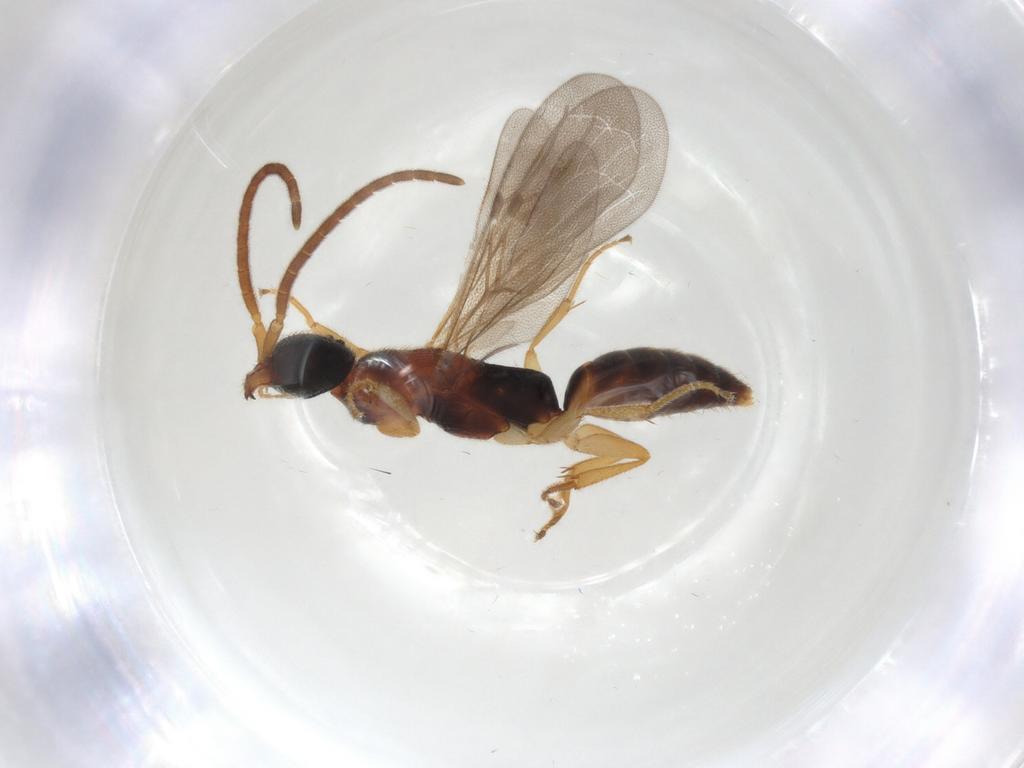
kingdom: Animalia
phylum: Arthropoda
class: Insecta
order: Hymenoptera
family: Bethylidae
